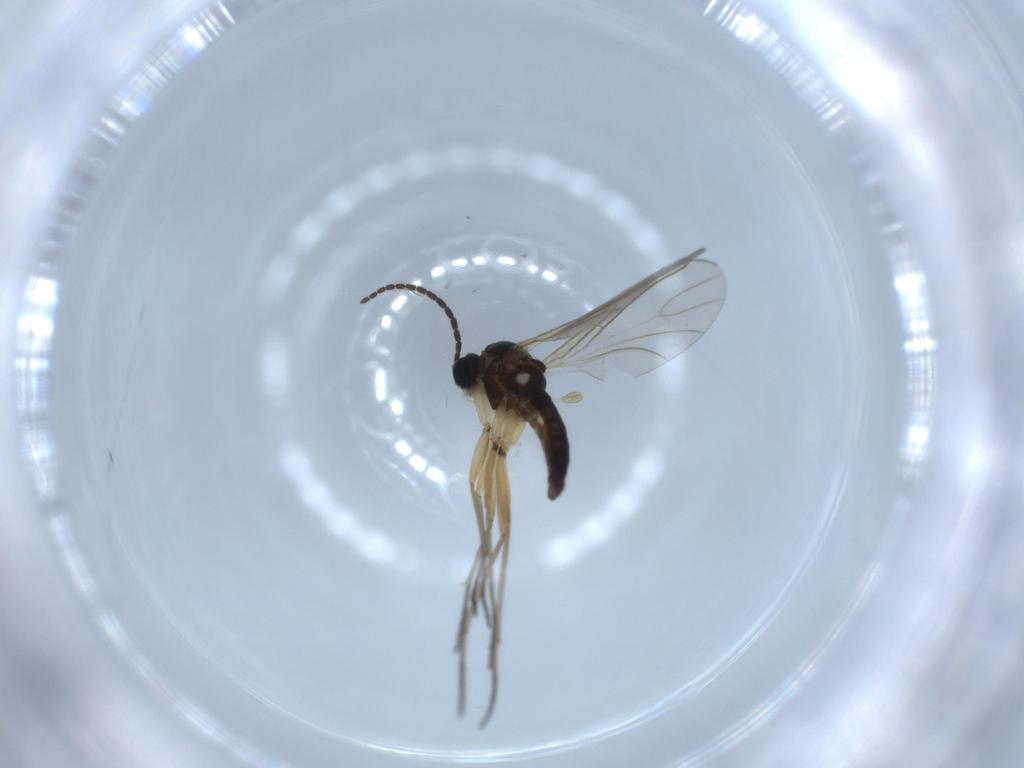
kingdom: Animalia
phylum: Arthropoda
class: Insecta
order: Diptera
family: Sciaridae
